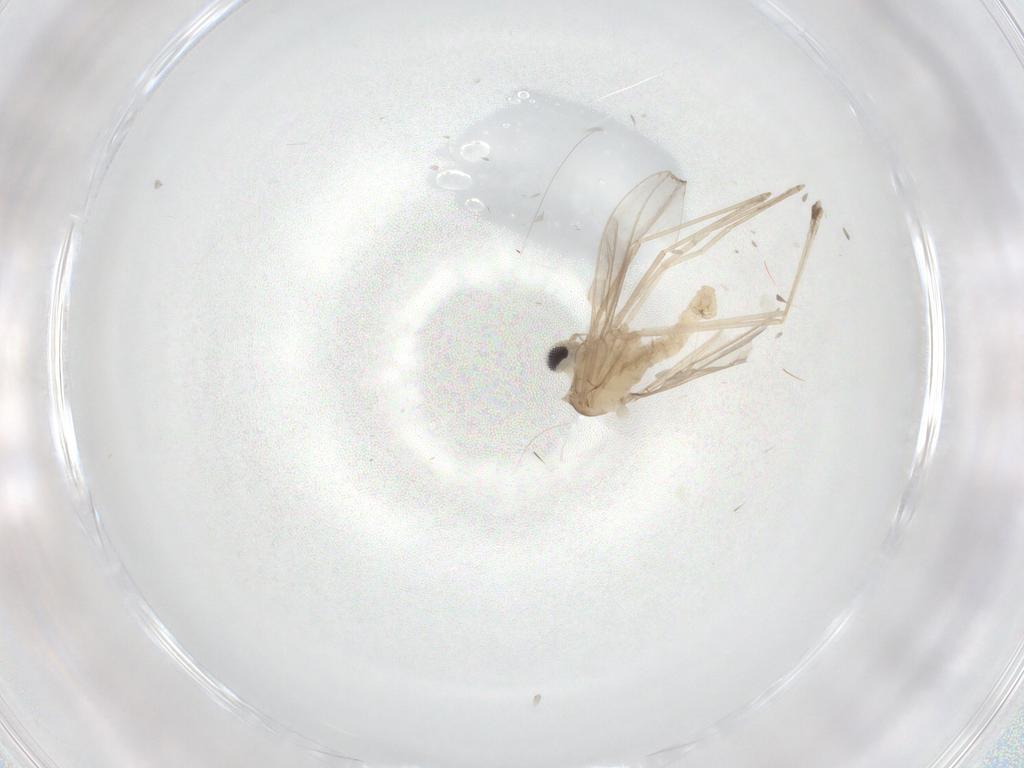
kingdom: Animalia
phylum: Arthropoda
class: Insecta
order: Diptera
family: Cecidomyiidae
